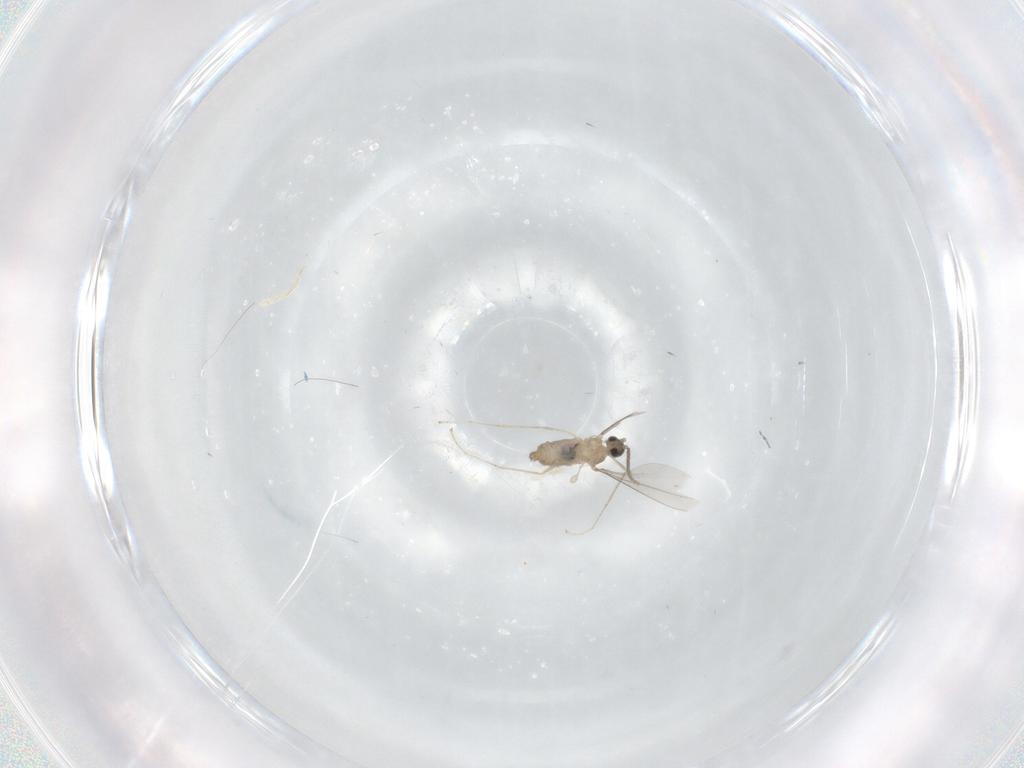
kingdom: Animalia
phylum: Arthropoda
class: Insecta
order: Diptera
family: Cecidomyiidae
